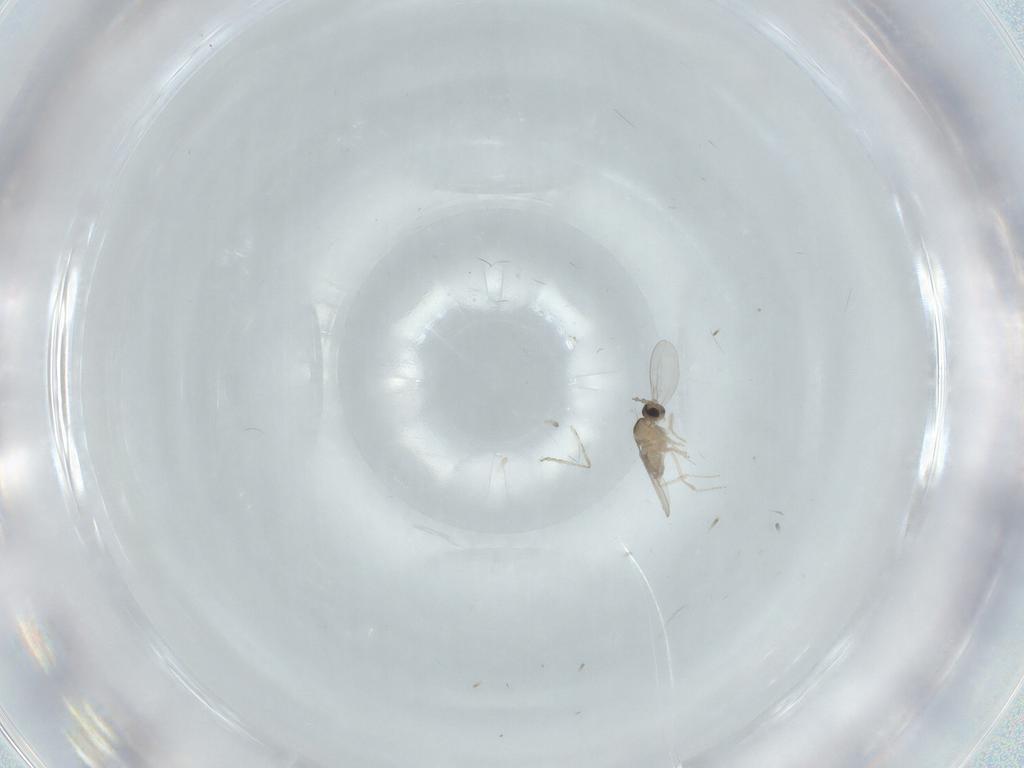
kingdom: Animalia
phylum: Arthropoda
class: Insecta
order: Diptera
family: Cecidomyiidae
